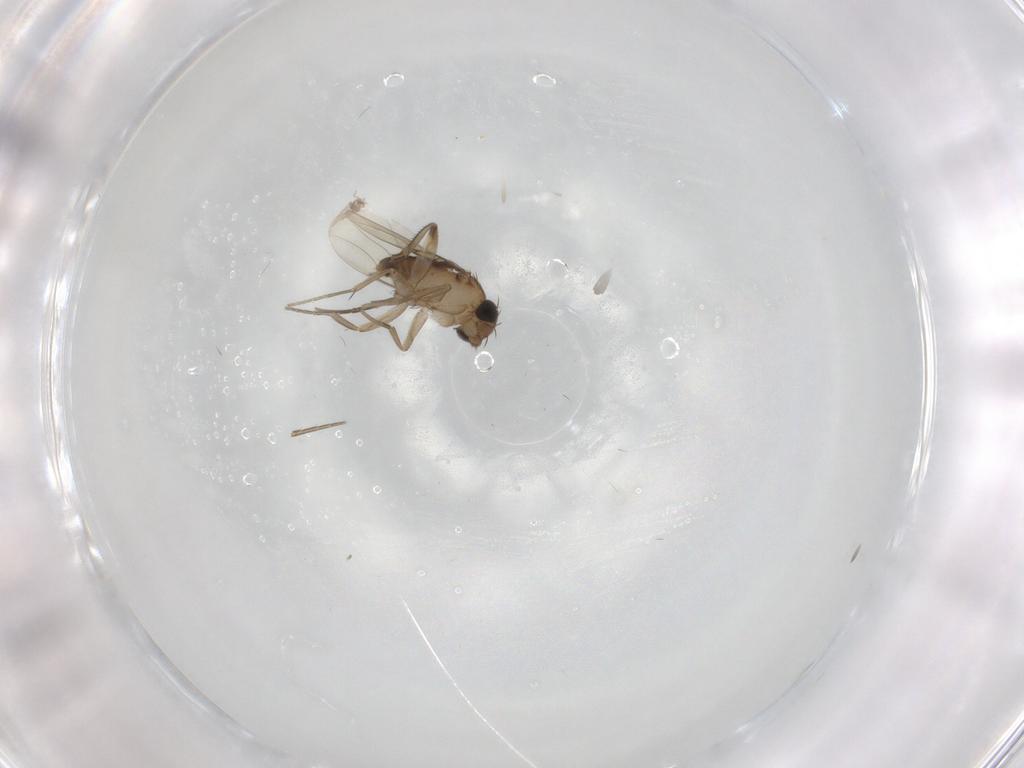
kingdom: Animalia
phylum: Arthropoda
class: Insecta
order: Diptera
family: Phoridae
